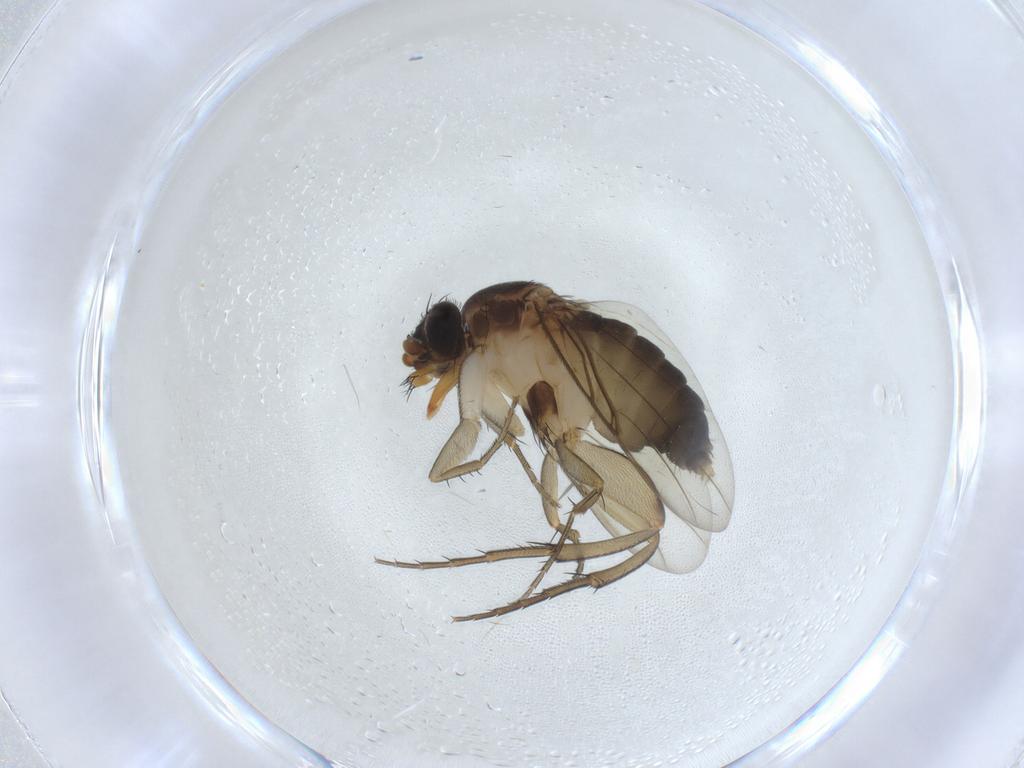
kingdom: Animalia
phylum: Arthropoda
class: Insecta
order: Diptera
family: Phoridae
